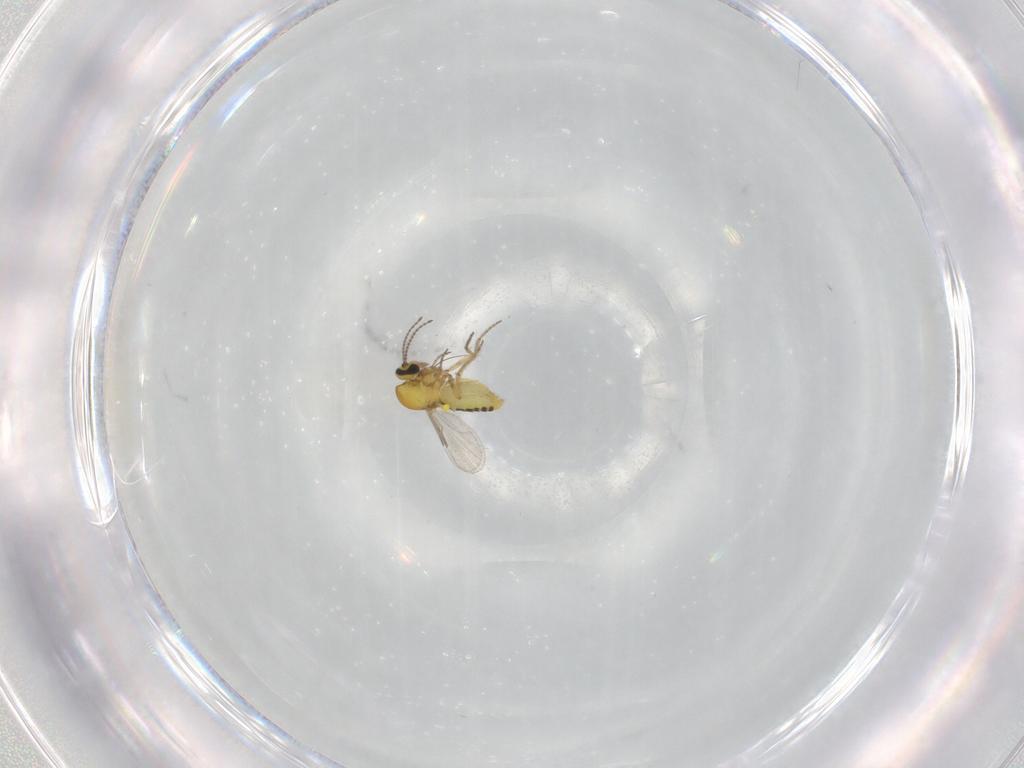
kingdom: Animalia
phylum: Arthropoda
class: Insecta
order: Diptera
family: Ceratopogonidae
